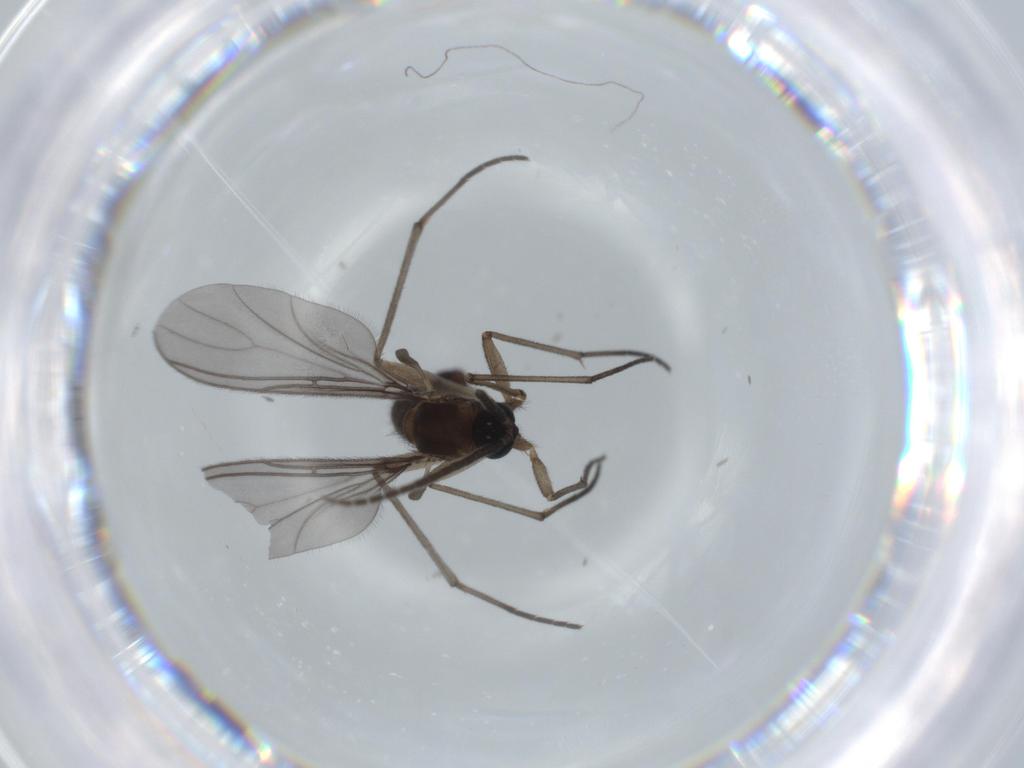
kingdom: Animalia
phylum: Arthropoda
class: Insecta
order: Diptera
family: Sciaridae
